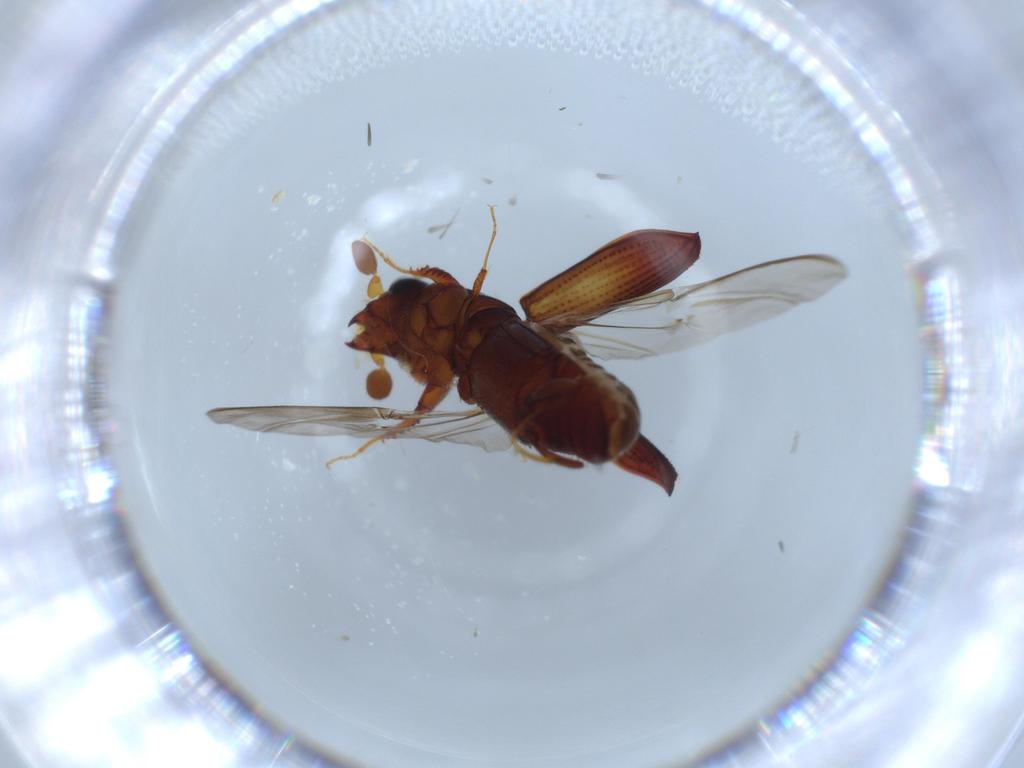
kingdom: Animalia
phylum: Arthropoda
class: Insecta
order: Coleoptera
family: Curculionidae
